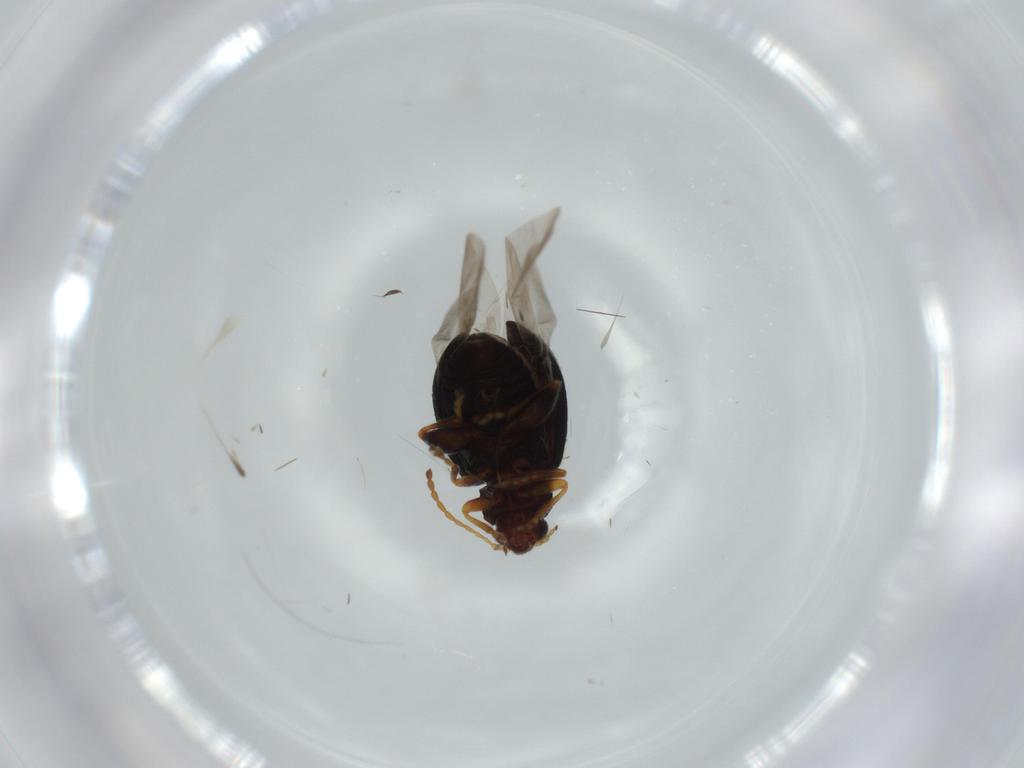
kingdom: Animalia
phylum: Arthropoda
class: Insecta
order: Coleoptera
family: Chrysomelidae
